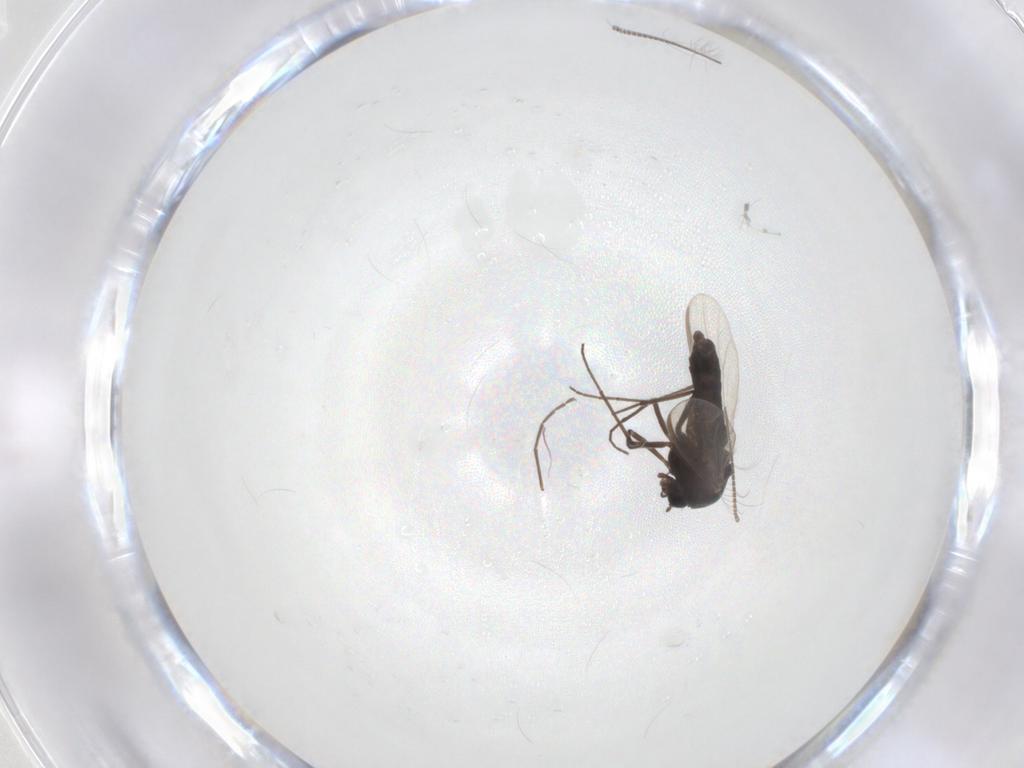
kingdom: Animalia
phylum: Arthropoda
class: Insecta
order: Diptera
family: Chironomidae
